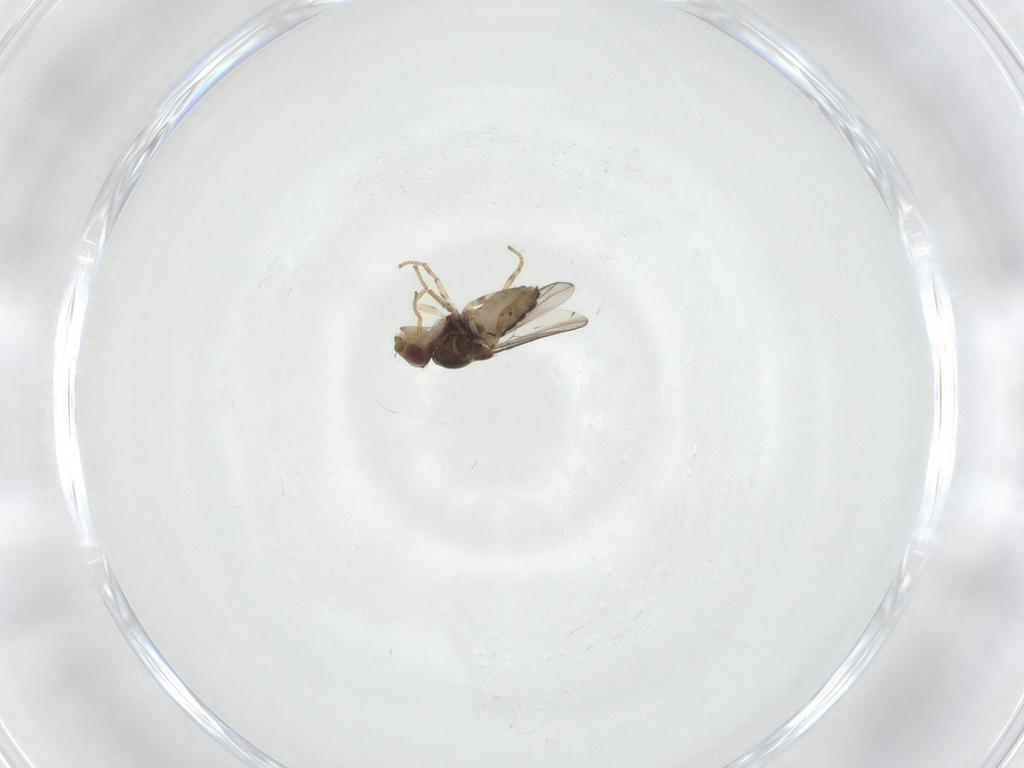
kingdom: Animalia
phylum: Arthropoda
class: Insecta
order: Diptera
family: Chloropidae
